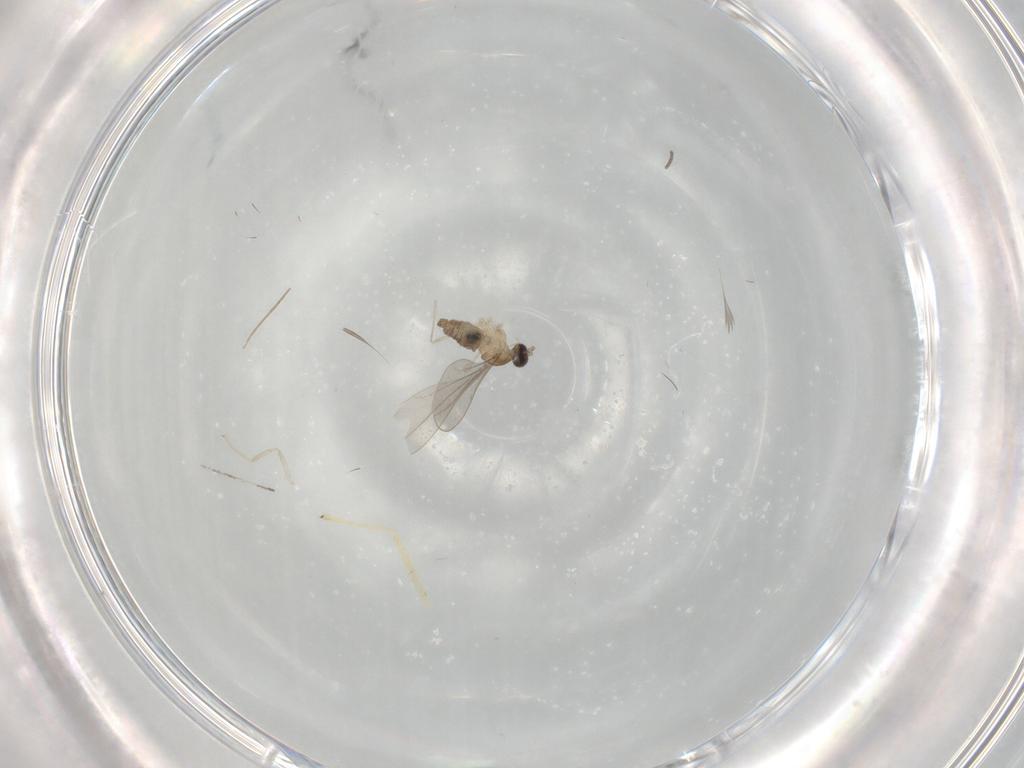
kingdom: Animalia
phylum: Arthropoda
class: Insecta
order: Diptera
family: Cecidomyiidae
